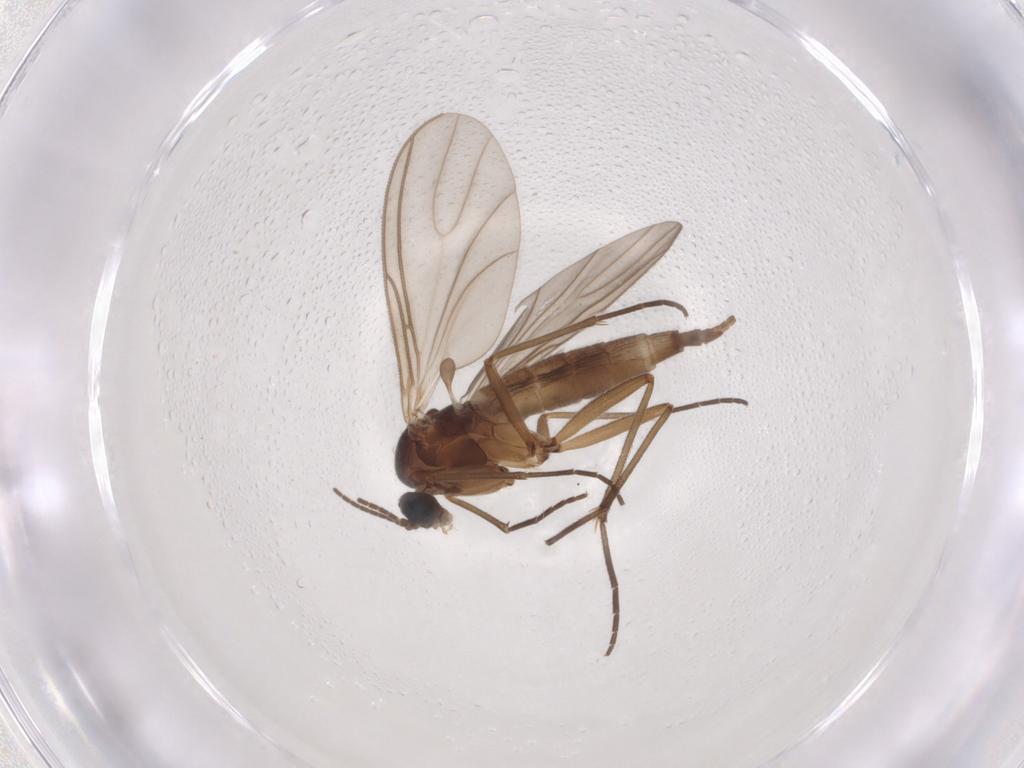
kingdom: Animalia
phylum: Arthropoda
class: Insecta
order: Diptera
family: Sciaridae
